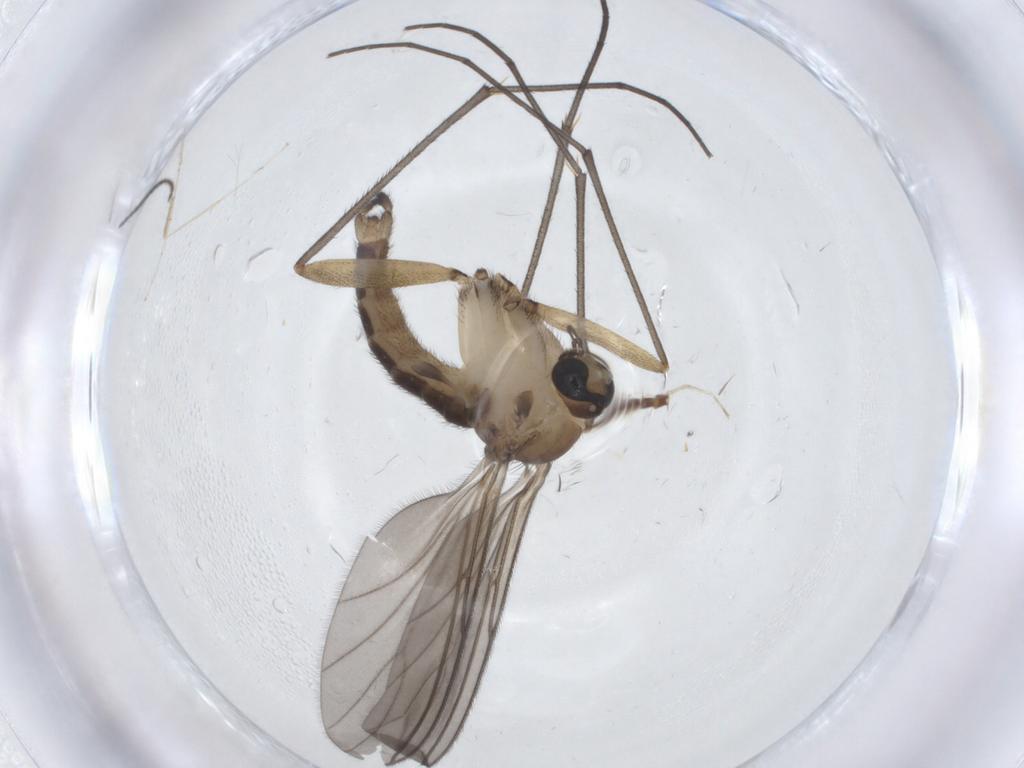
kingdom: Animalia
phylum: Arthropoda
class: Insecta
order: Diptera
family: Sciaridae
